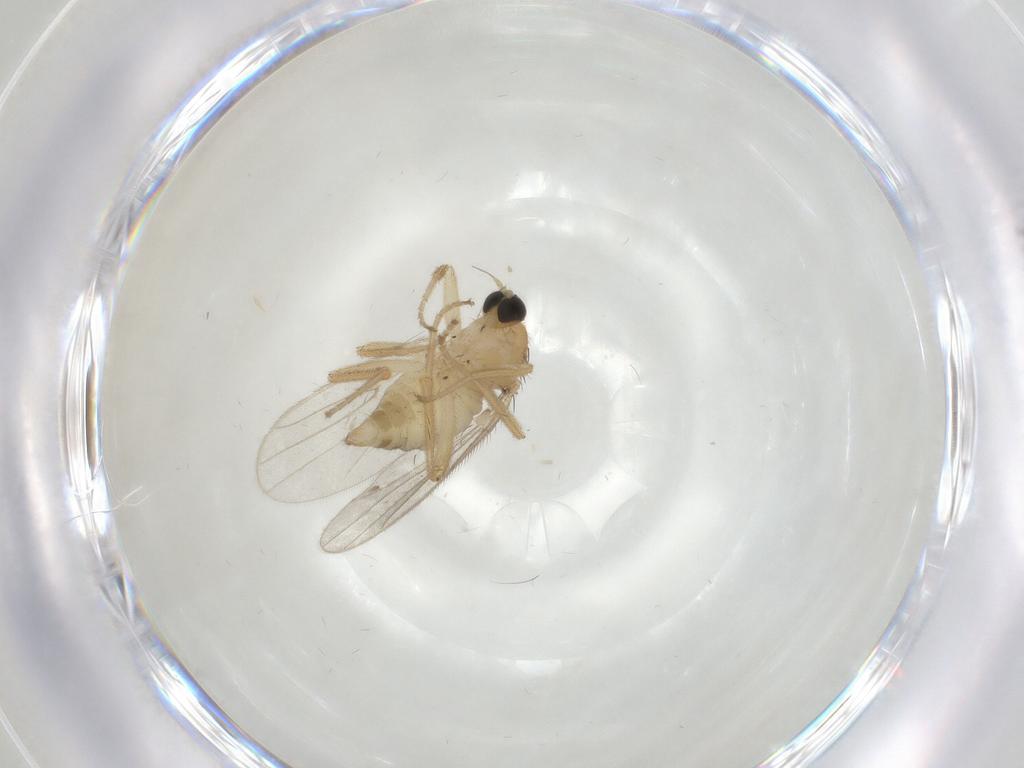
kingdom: Animalia
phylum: Arthropoda
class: Insecta
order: Diptera
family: Hybotidae
